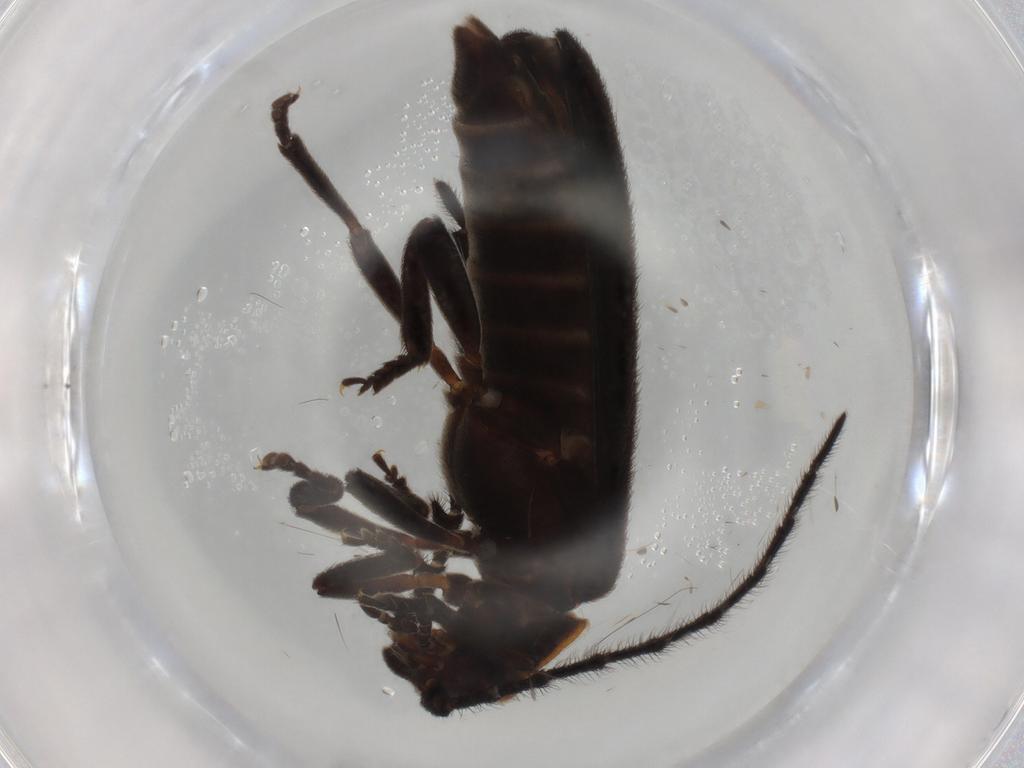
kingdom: Animalia
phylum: Arthropoda
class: Insecta
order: Coleoptera
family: Lycidae
